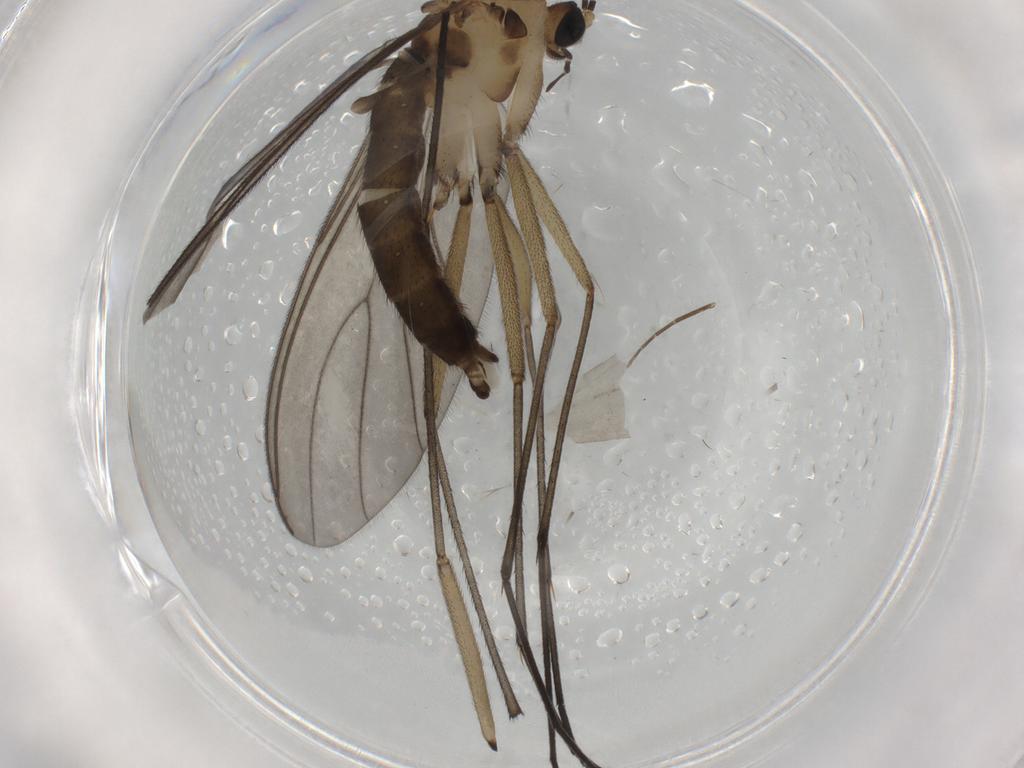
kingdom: Animalia
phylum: Arthropoda
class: Insecta
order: Diptera
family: Sciaridae
